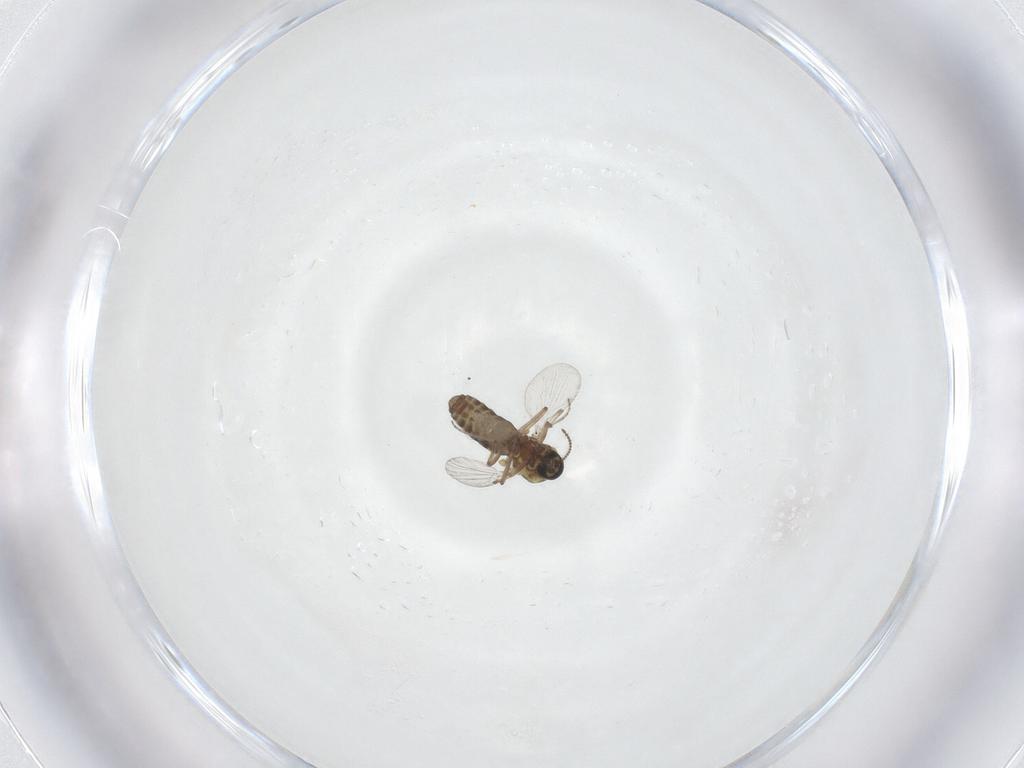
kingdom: Animalia
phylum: Arthropoda
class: Insecta
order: Diptera
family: Ceratopogonidae
